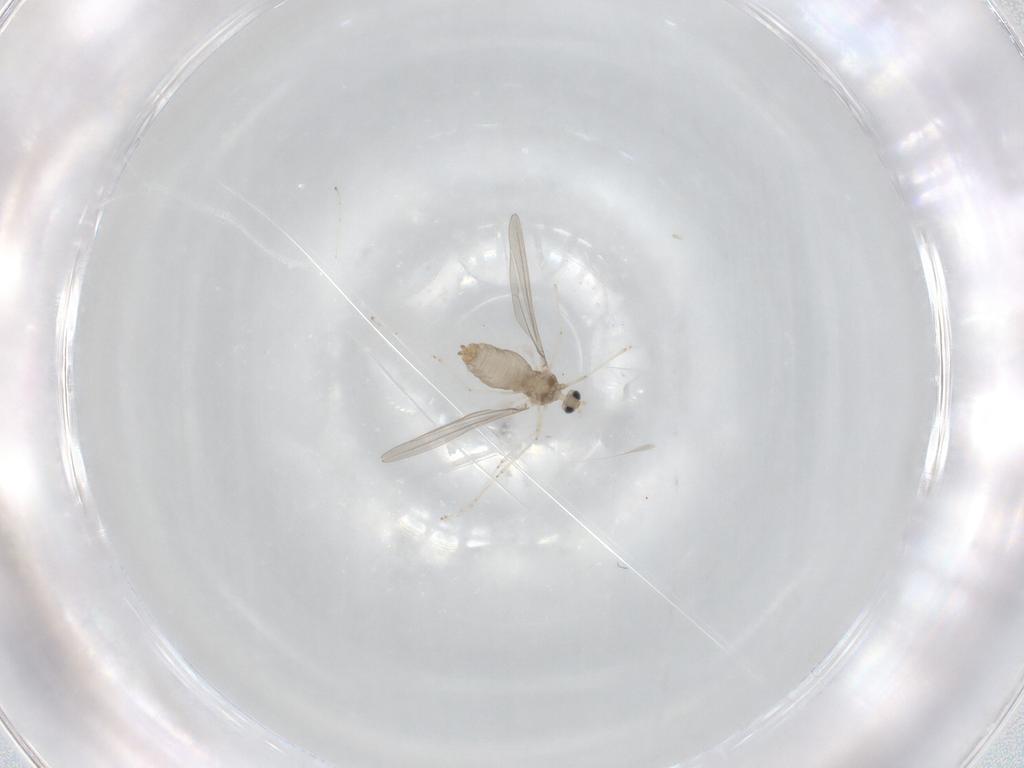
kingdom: Animalia
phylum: Arthropoda
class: Insecta
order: Diptera
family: Cecidomyiidae
